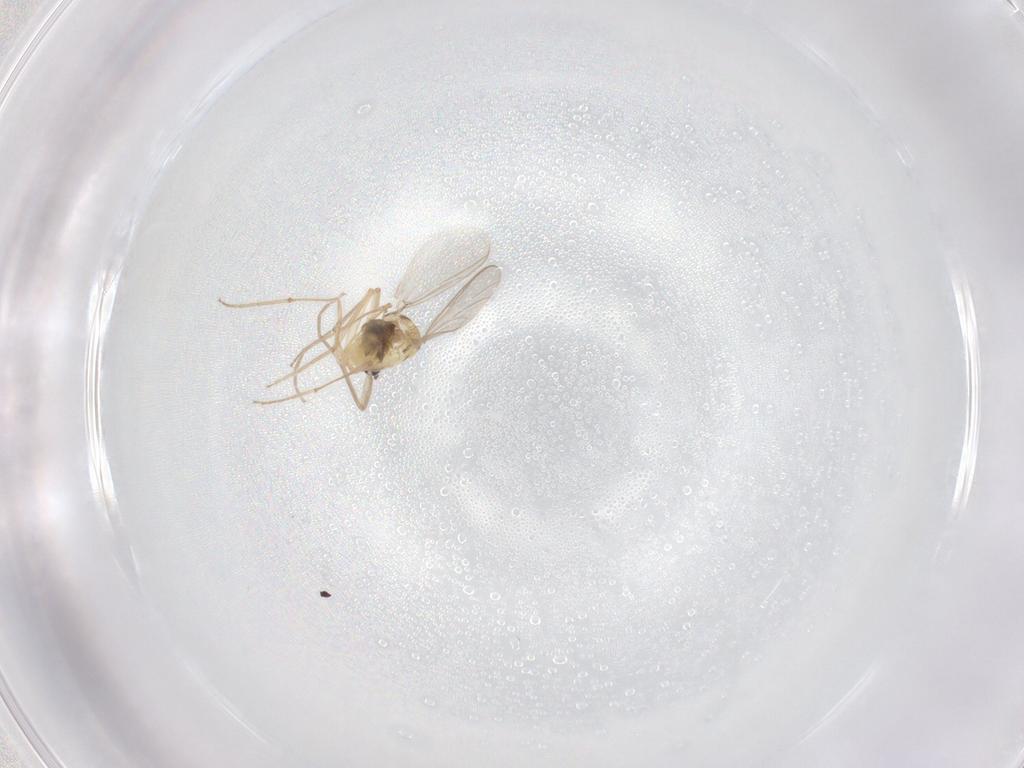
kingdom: Animalia
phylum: Arthropoda
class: Insecta
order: Diptera
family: Chironomidae
